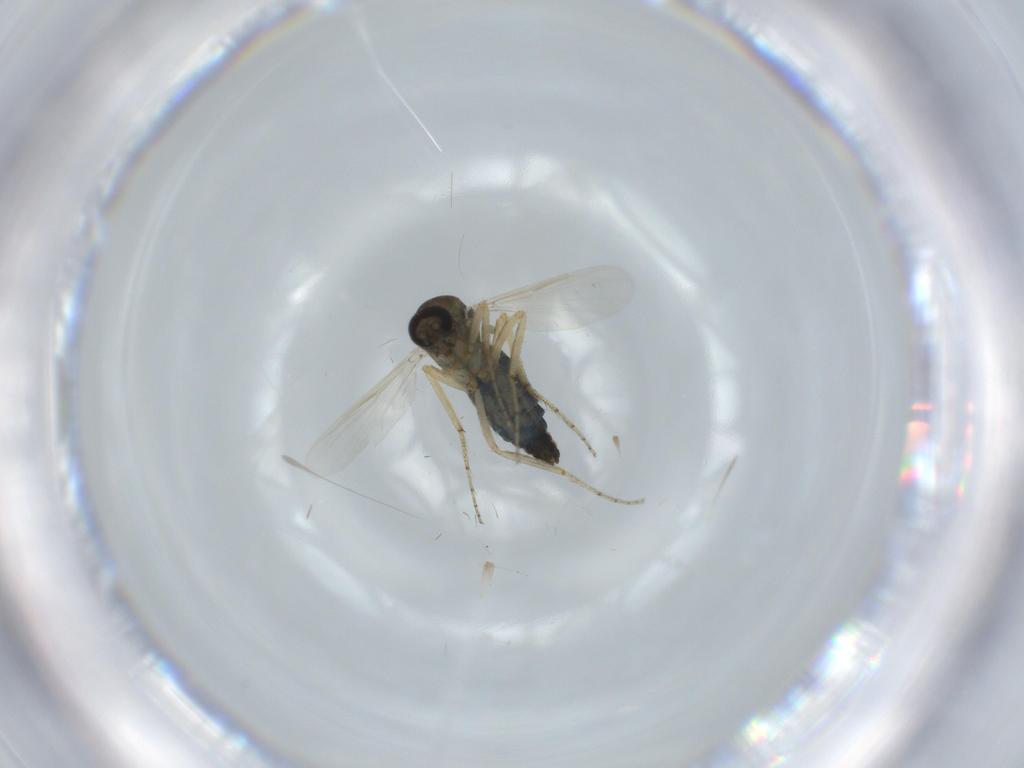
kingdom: Animalia
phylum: Arthropoda
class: Insecta
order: Diptera
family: Ceratopogonidae
